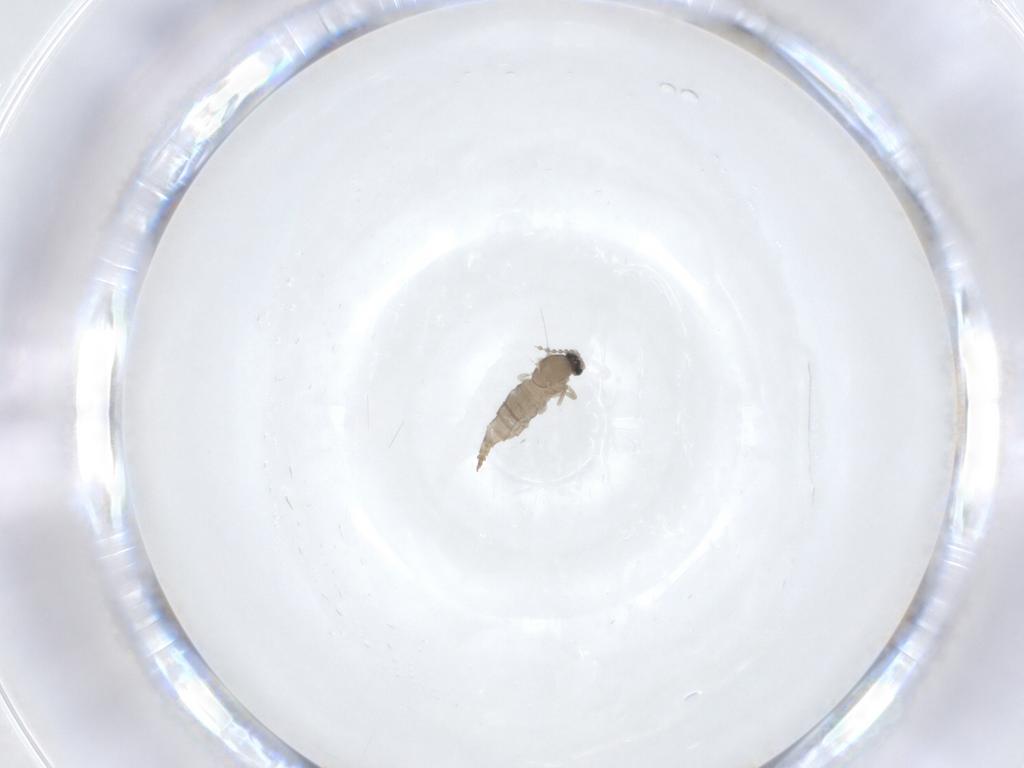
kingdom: Animalia
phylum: Arthropoda
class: Insecta
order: Diptera
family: Cecidomyiidae
